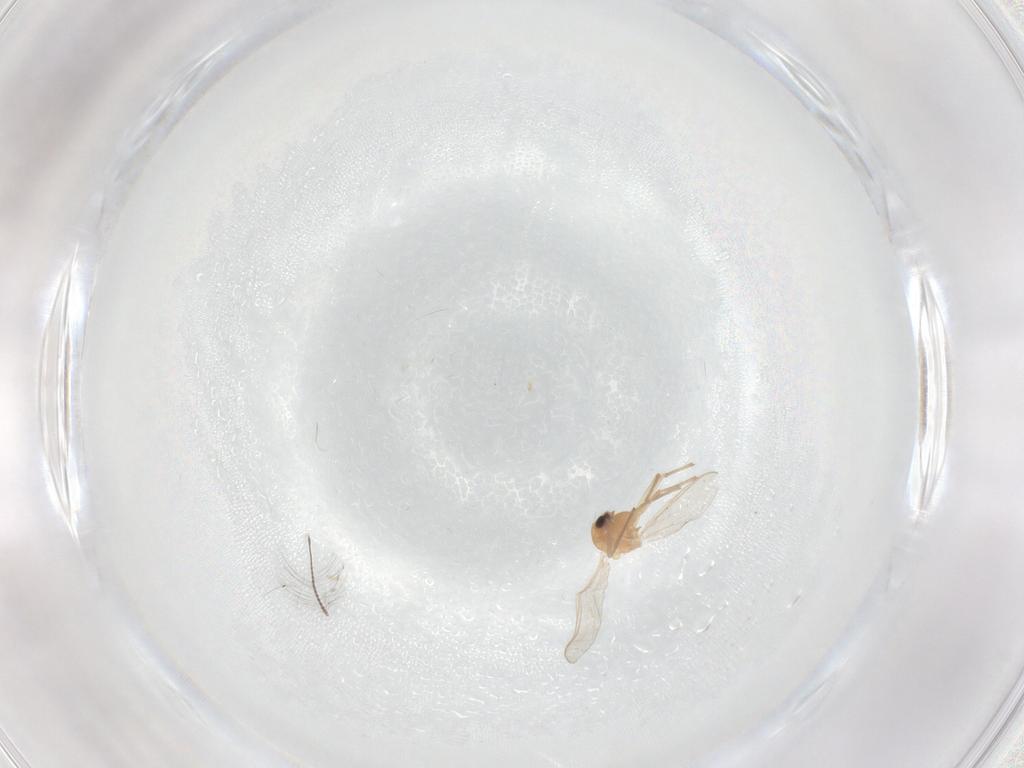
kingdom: Animalia
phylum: Arthropoda
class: Insecta
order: Diptera
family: Chironomidae
